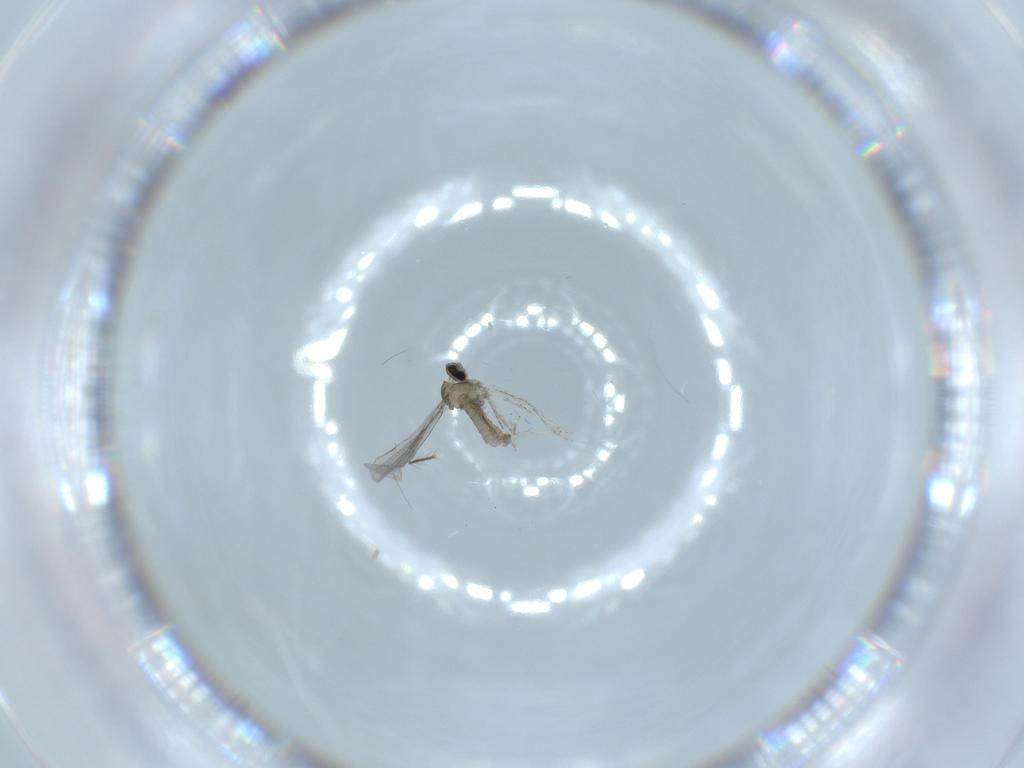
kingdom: Animalia
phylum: Arthropoda
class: Insecta
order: Diptera
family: Cecidomyiidae
